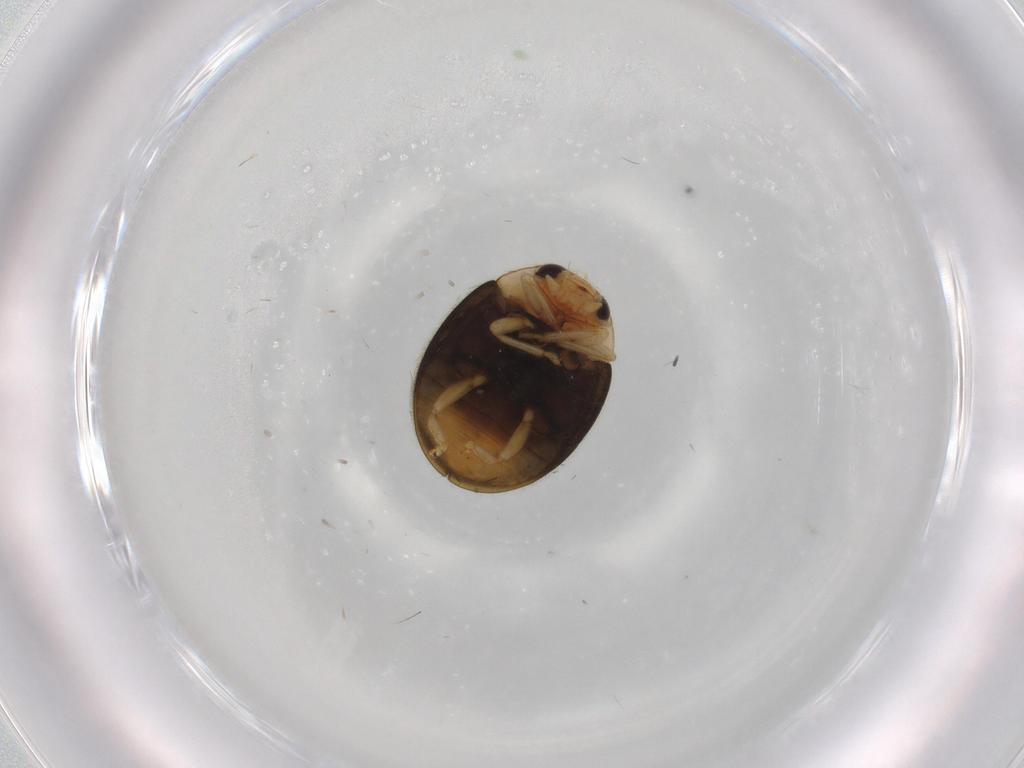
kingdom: Animalia
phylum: Arthropoda
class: Insecta
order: Coleoptera
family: Coccinellidae
